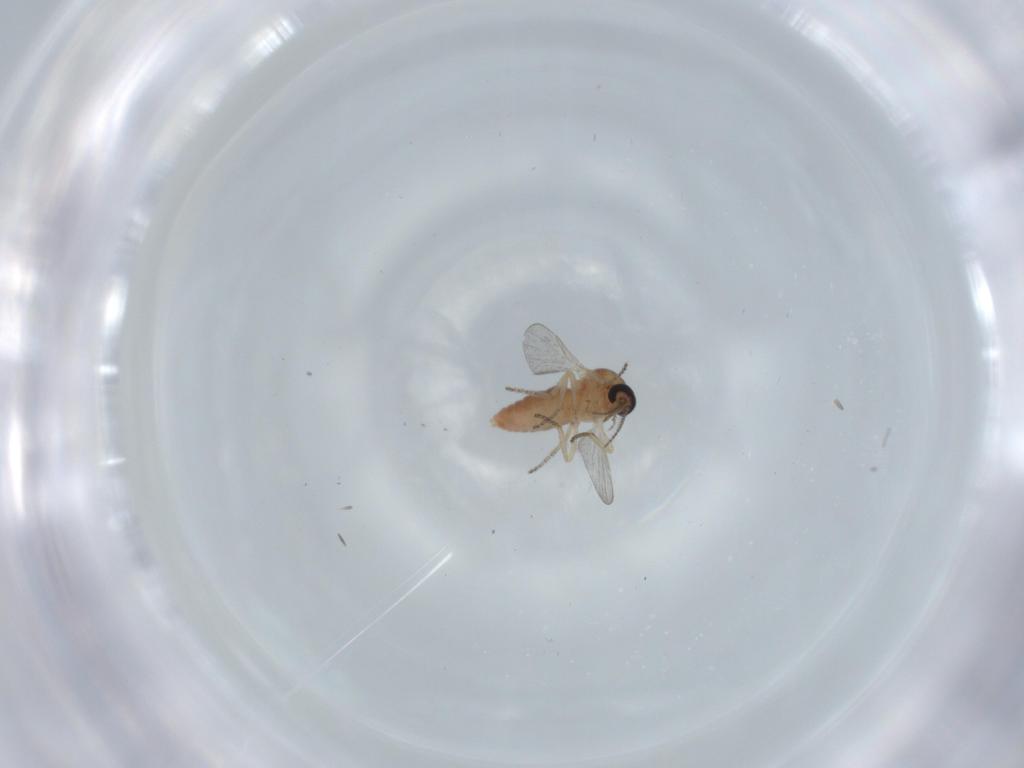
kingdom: Animalia
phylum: Arthropoda
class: Insecta
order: Diptera
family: Ceratopogonidae
